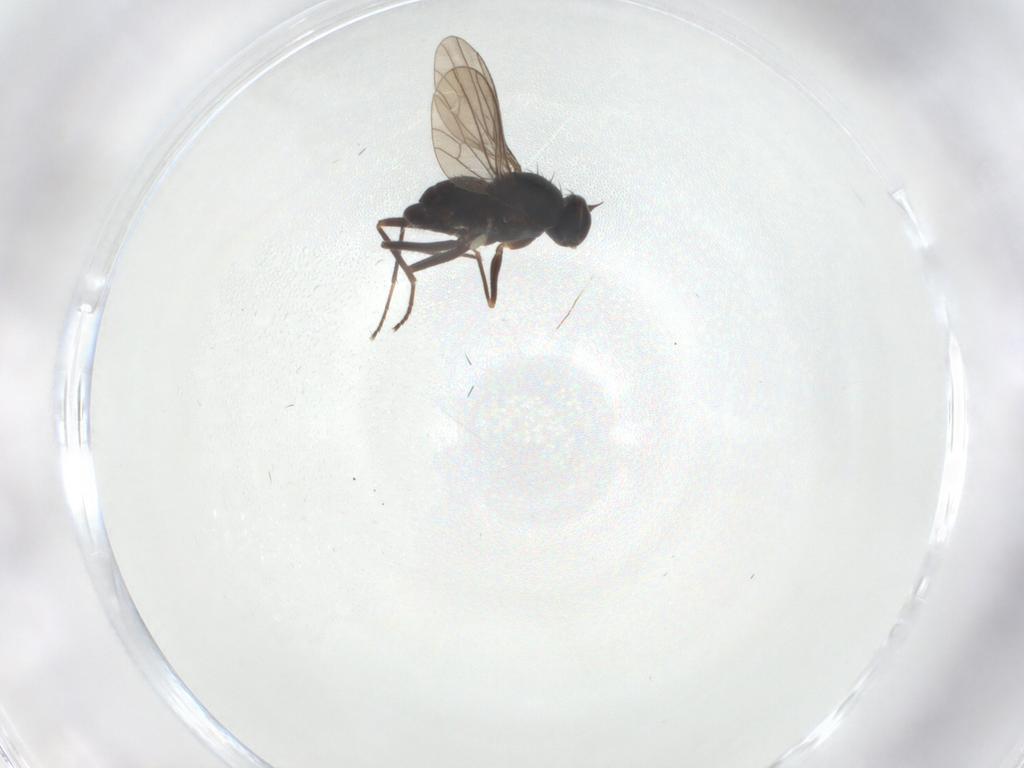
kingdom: Animalia
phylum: Arthropoda
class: Insecta
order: Diptera
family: Dolichopodidae
